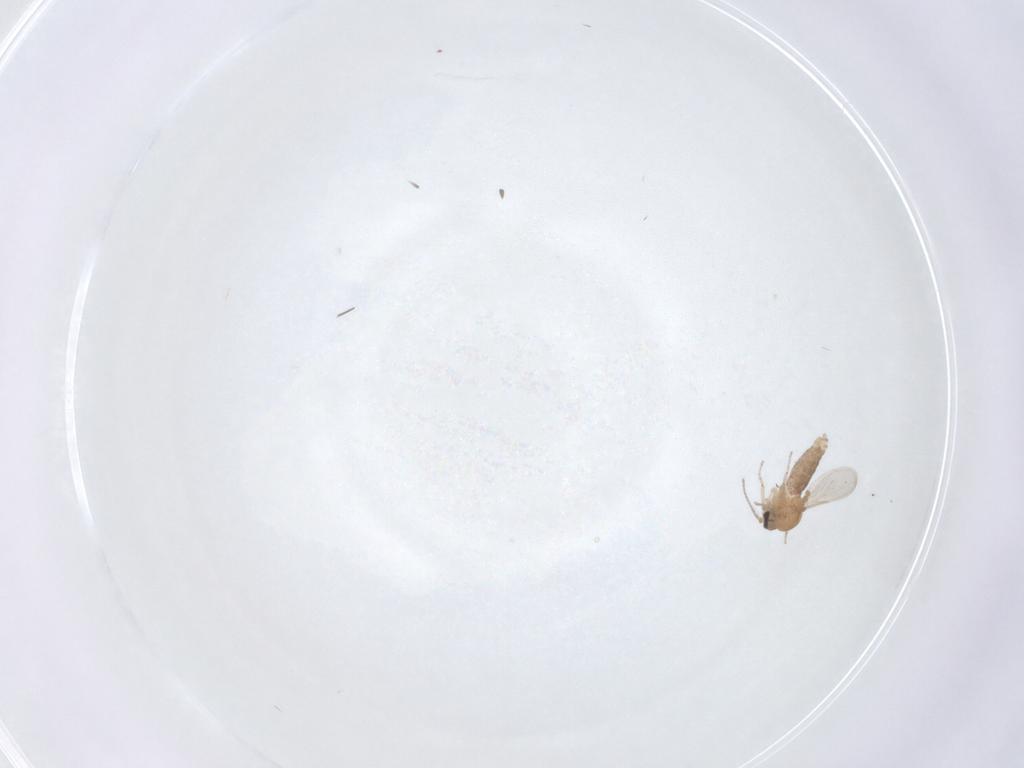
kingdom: Animalia
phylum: Arthropoda
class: Insecta
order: Diptera
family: Ceratopogonidae
